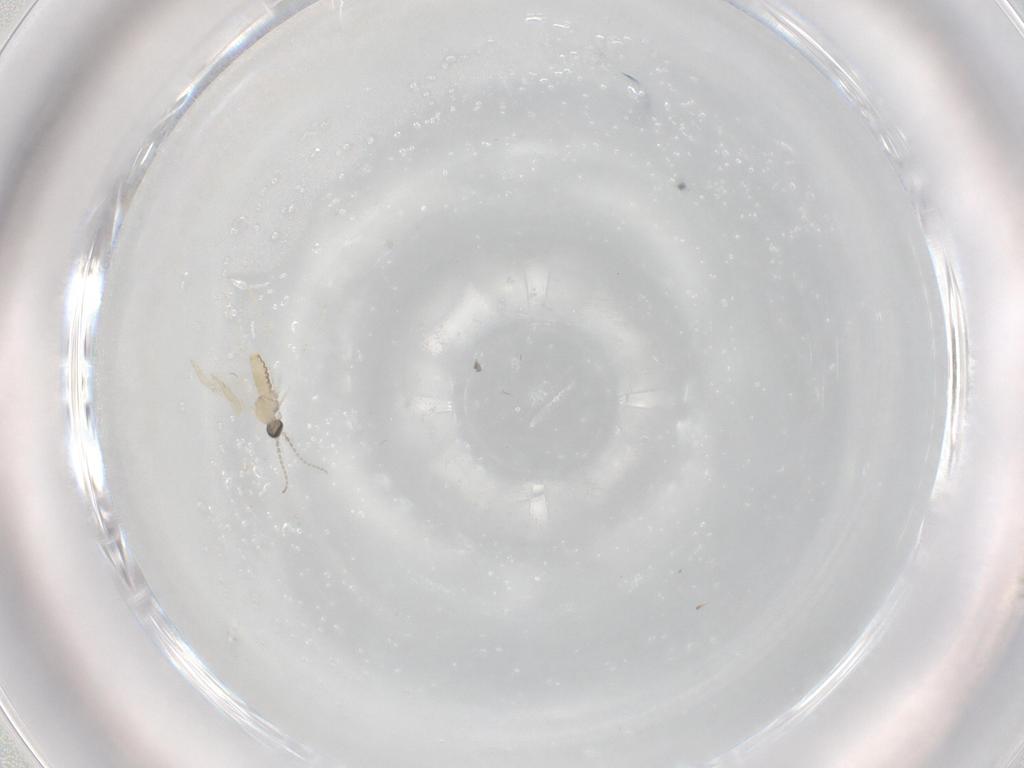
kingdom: Animalia
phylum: Arthropoda
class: Insecta
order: Diptera
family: Cecidomyiidae
